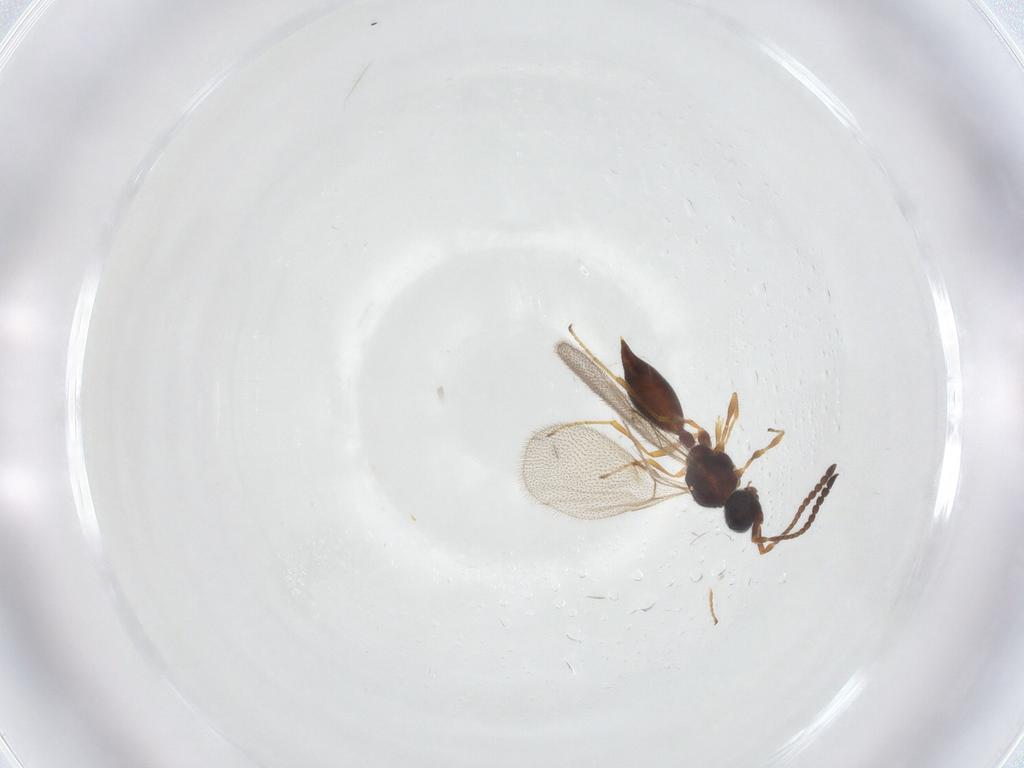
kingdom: Animalia
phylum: Arthropoda
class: Insecta
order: Hymenoptera
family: Diapriidae
